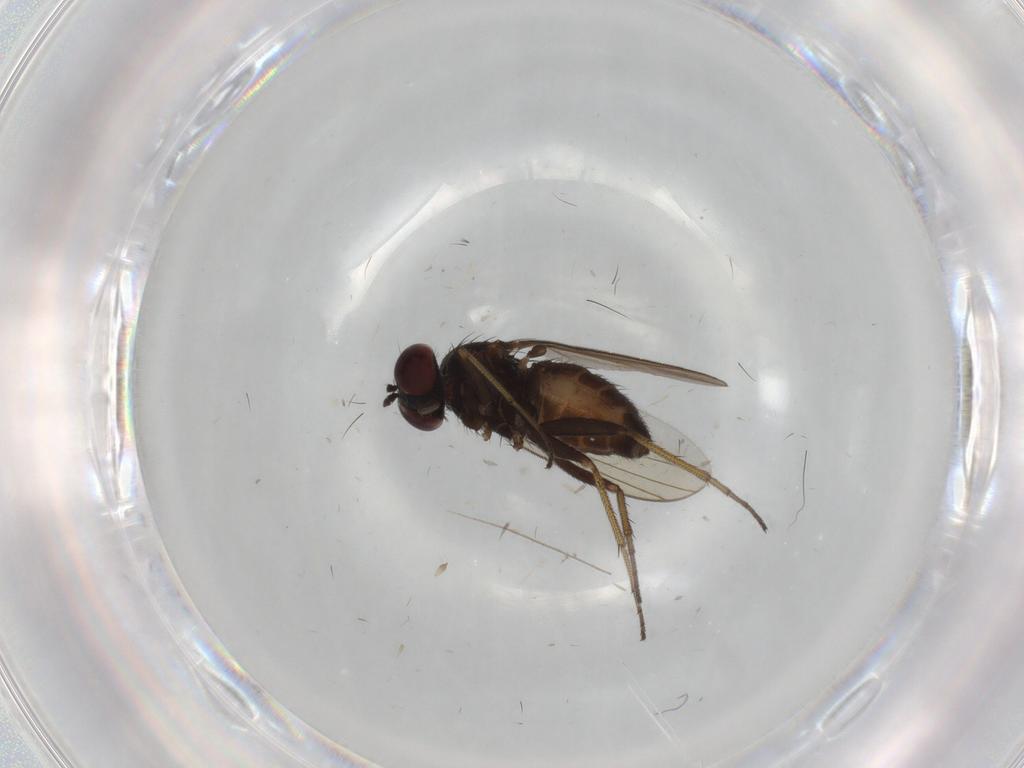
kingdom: Animalia
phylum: Arthropoda
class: Insecta
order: Diptera
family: Dolichopodidae
